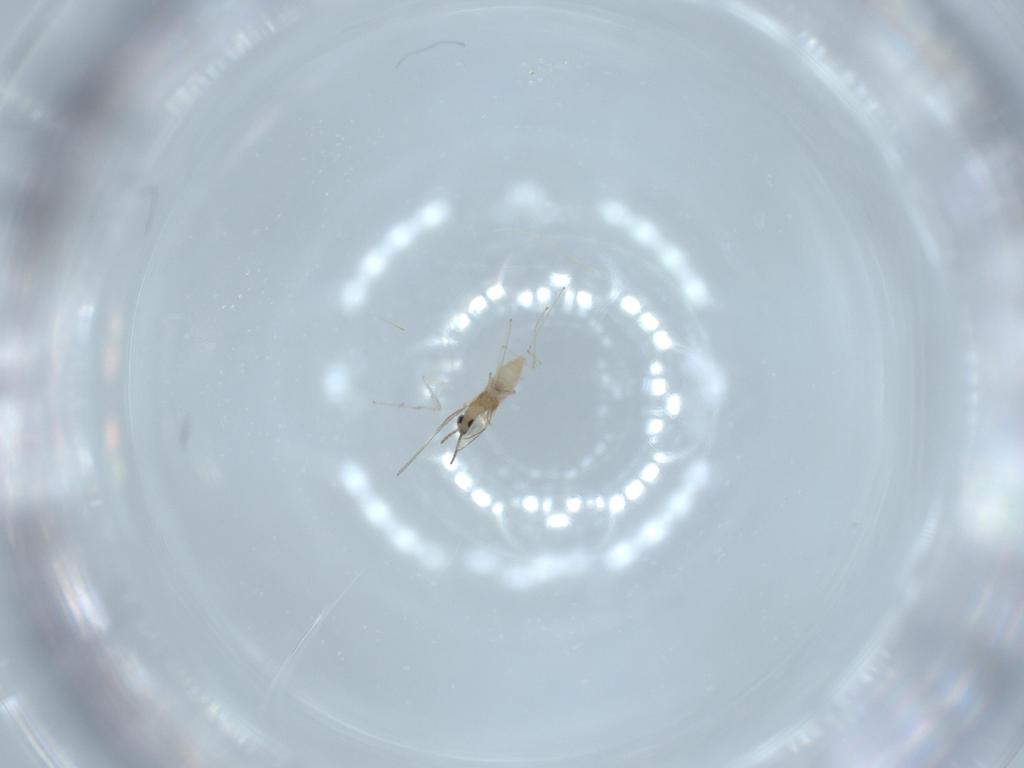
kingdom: Animalia
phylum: Arthropoda
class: Insecta
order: Diptera
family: Cecidomyiidae
